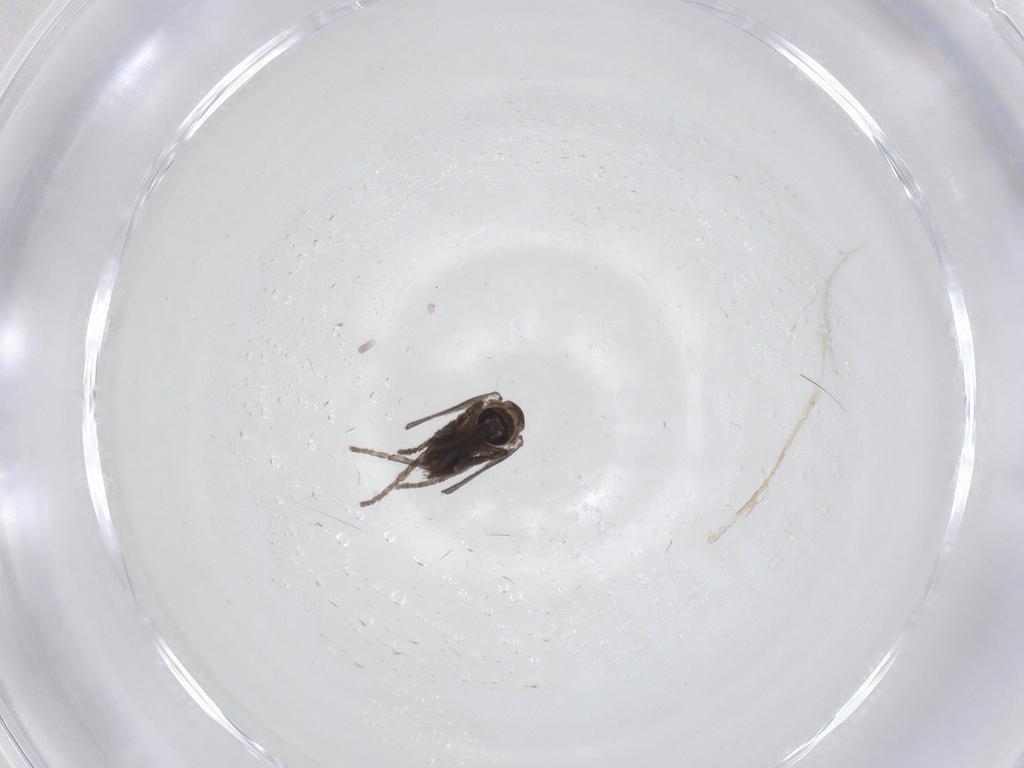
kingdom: Animalia
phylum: Arthropoda
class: Insecta
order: Diptera
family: Psychodidae
